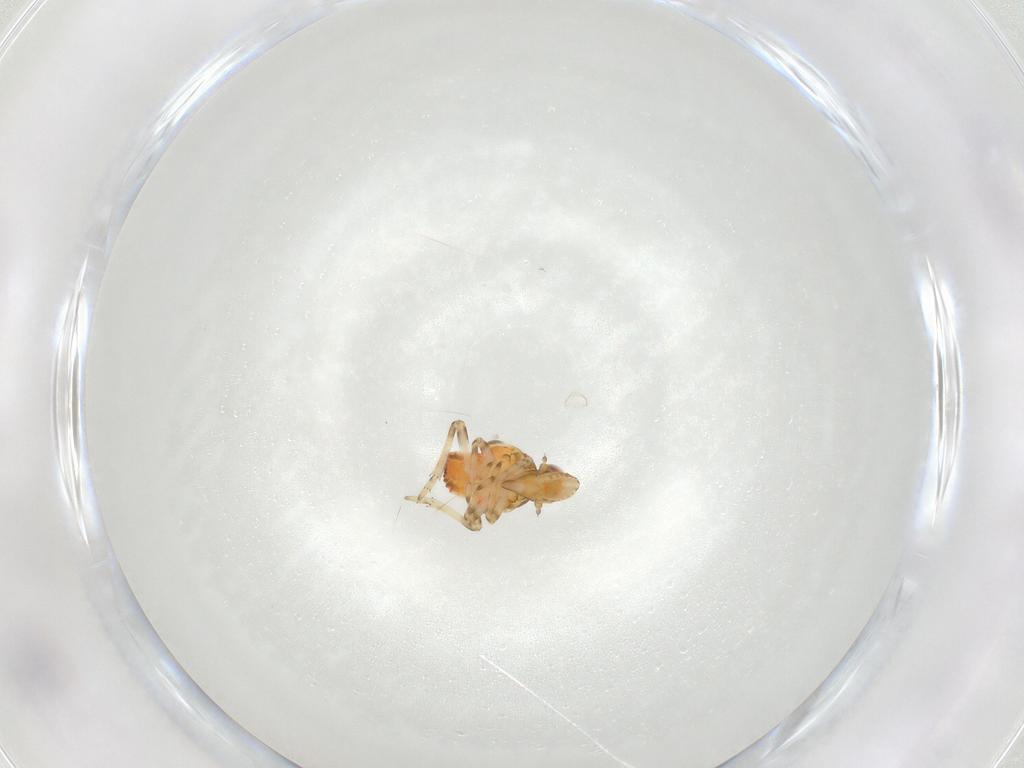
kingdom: Animalia
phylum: Arthropoda
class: Insecta
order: Hemiptera
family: Tropiduchidae
